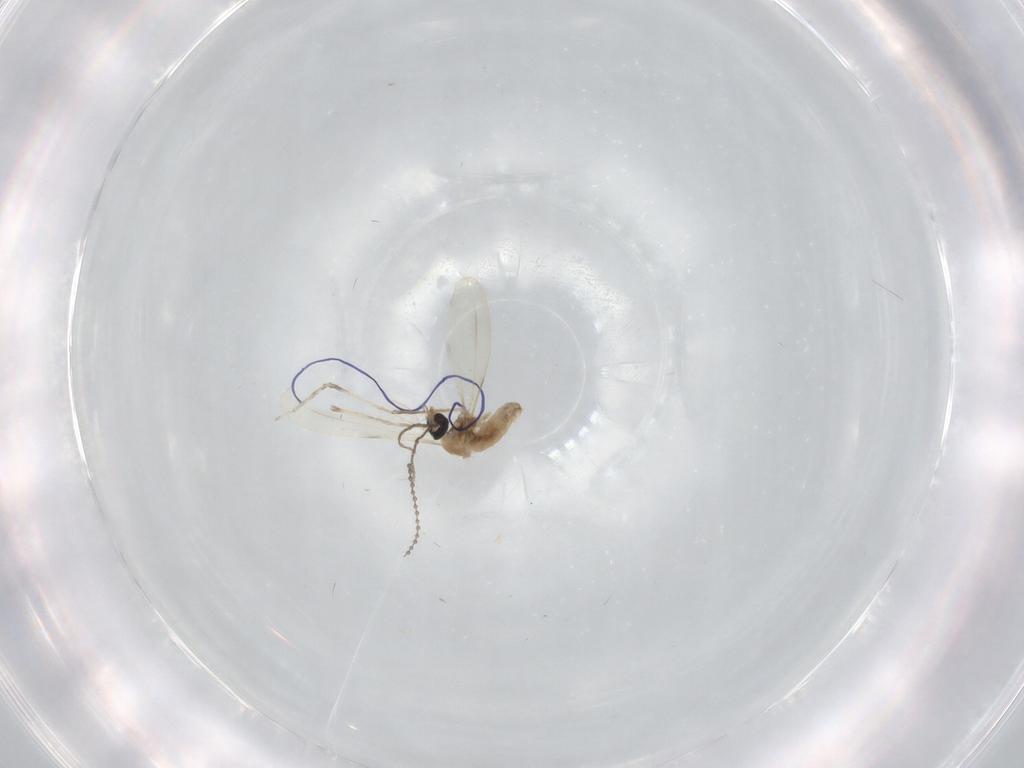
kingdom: Animalia
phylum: Arthropoda
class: Insecta
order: Diptera
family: Cecidomyiidae
